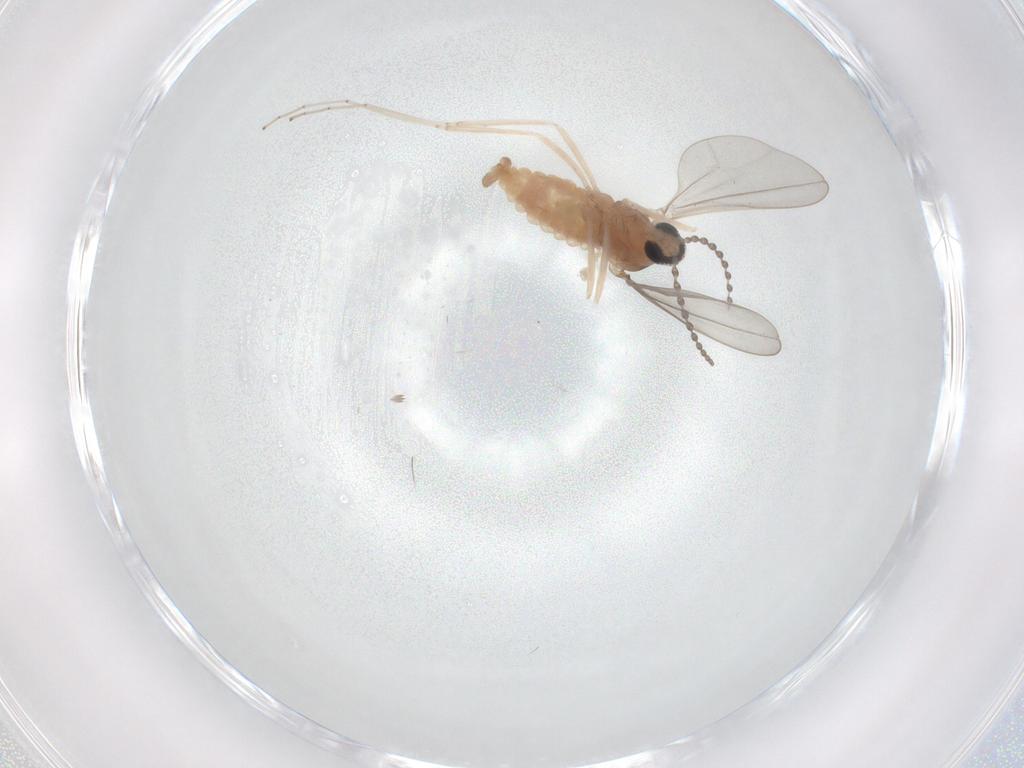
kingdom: Animalia
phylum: Arthropoda
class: Insecta
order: Diptera
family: Cecidomyiidae
